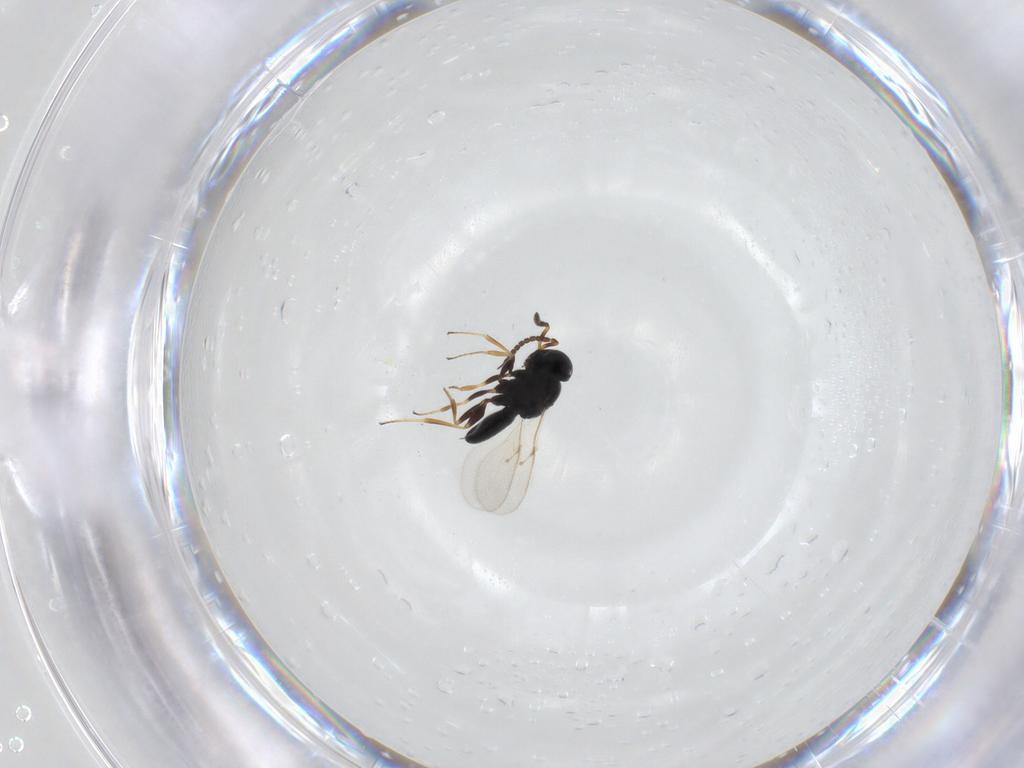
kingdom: Animalia
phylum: Arthropoda
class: Insecta
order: Hymenoptera
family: Scelionidae
